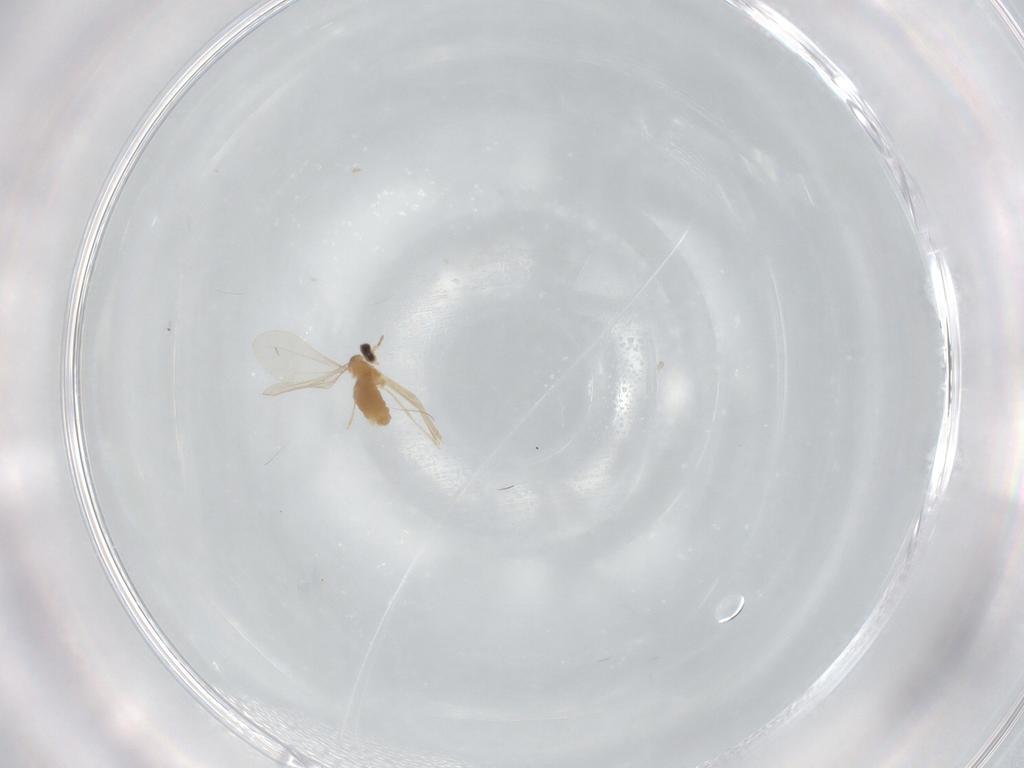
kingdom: Animalia
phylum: Arthropoda
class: Insecta
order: Diptera
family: Cecidomyiidae
